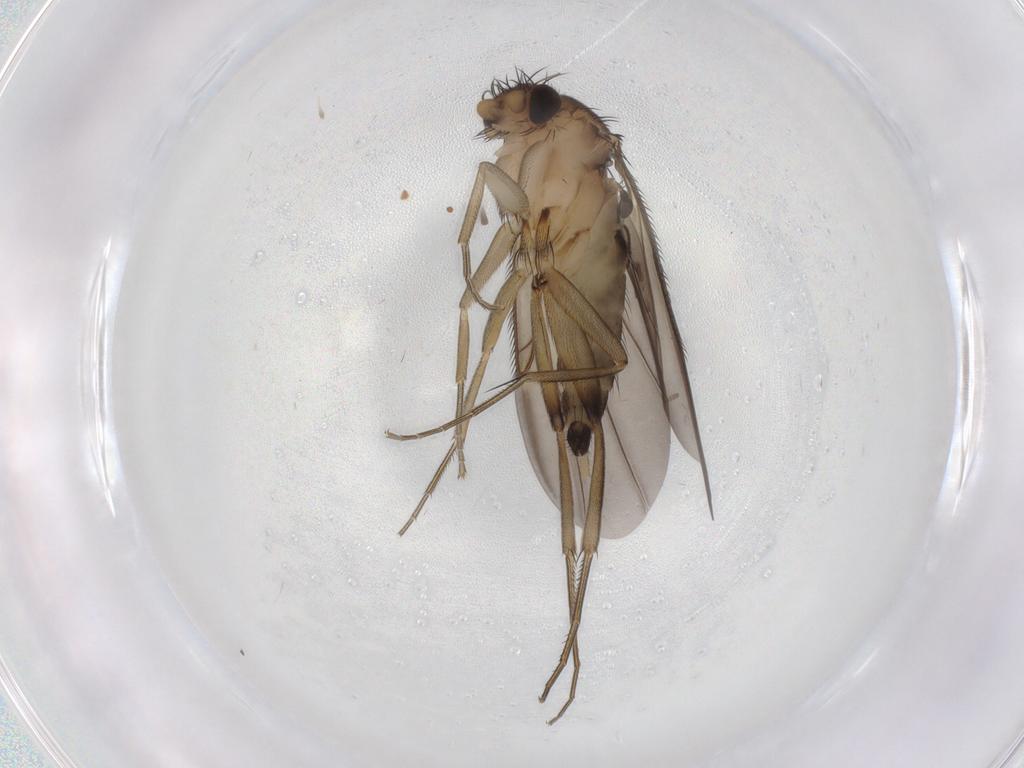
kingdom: Animalia
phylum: Arthropoda
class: Insecta
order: Diptera
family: Phoridae
